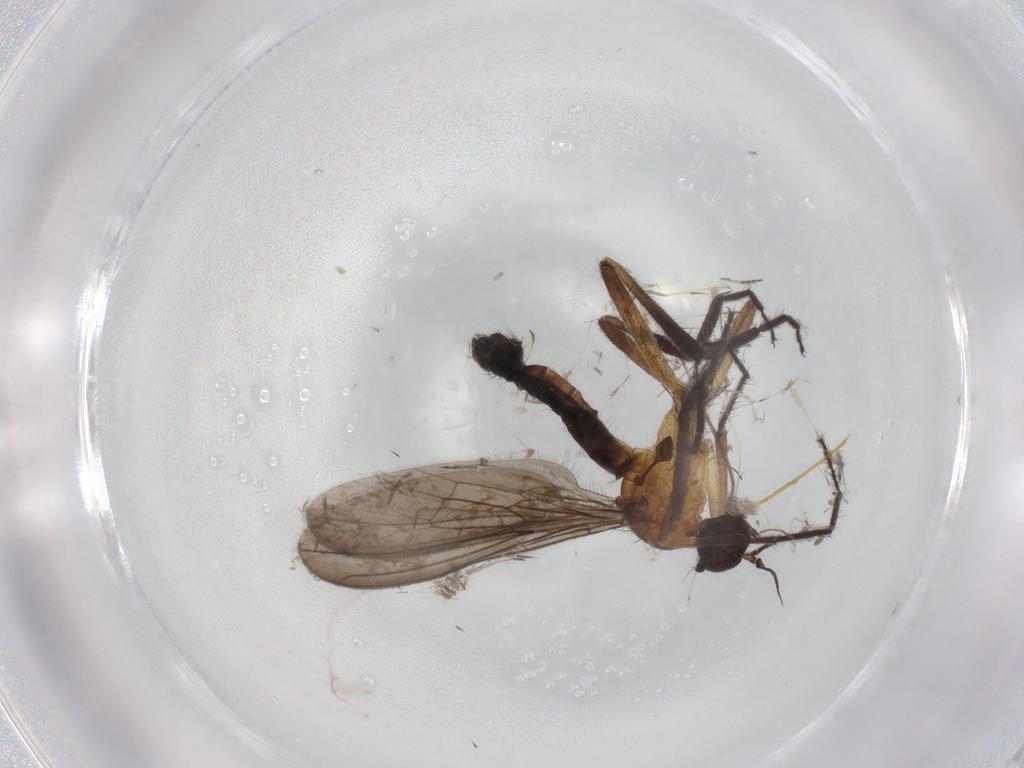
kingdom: Animalia
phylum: Arthropoda
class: Insecta
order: Diptera
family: Empididae
